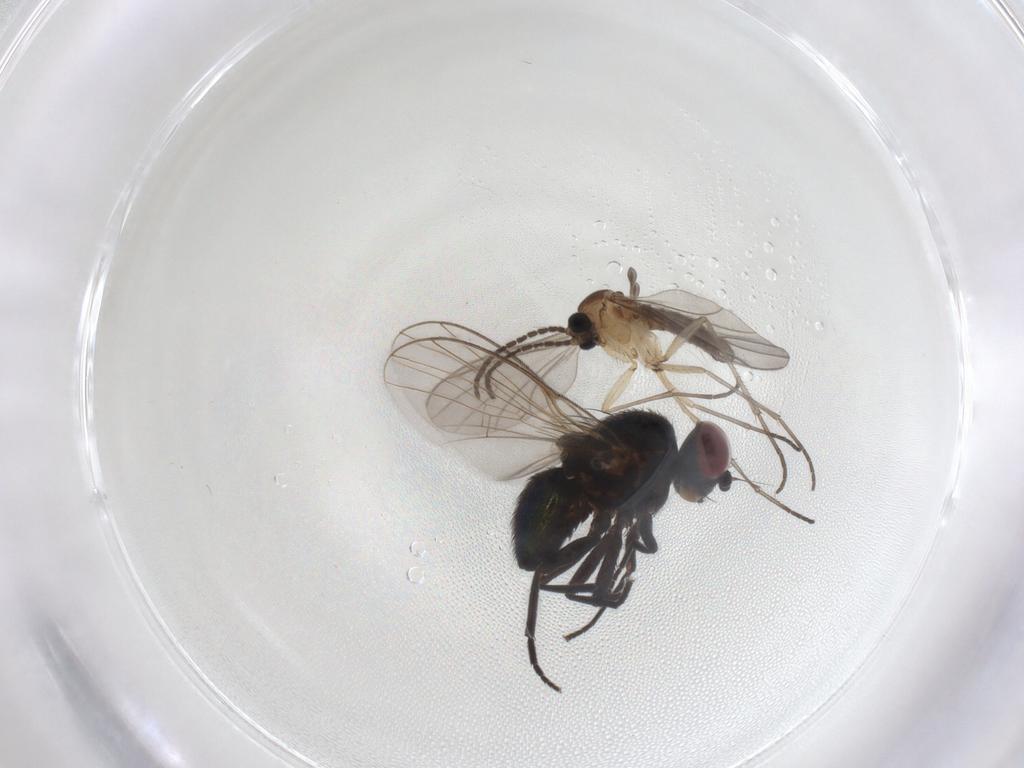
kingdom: Animalia
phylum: Arthropoda
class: Insecta
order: Diptera
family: Agromyzidae
